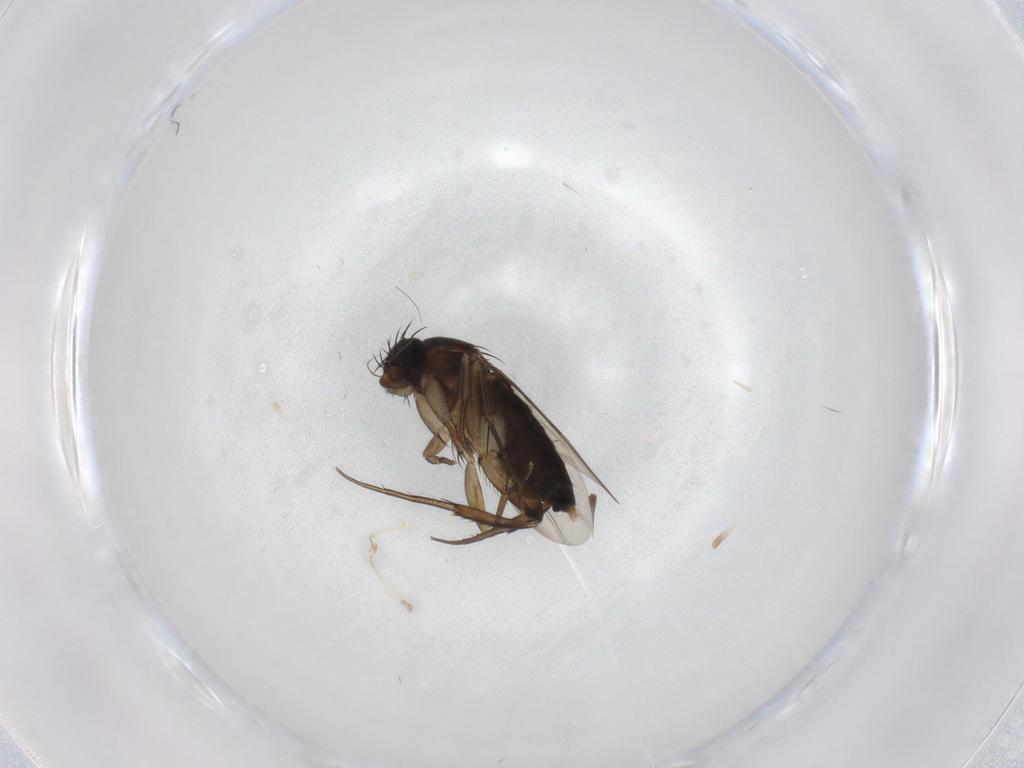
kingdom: Animalia
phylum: Arthropoda
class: Insecta
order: Diptera
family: Phoridae
